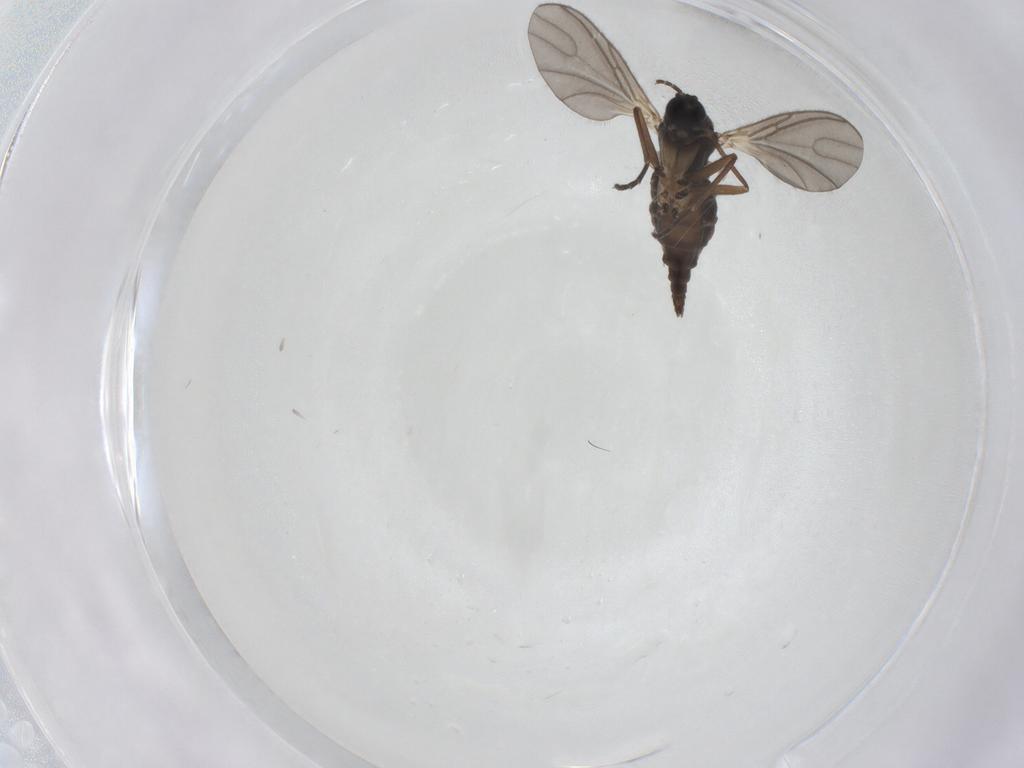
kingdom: Animalia
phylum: Arthropoda
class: Insecta
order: Diptera
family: Sciaridae
